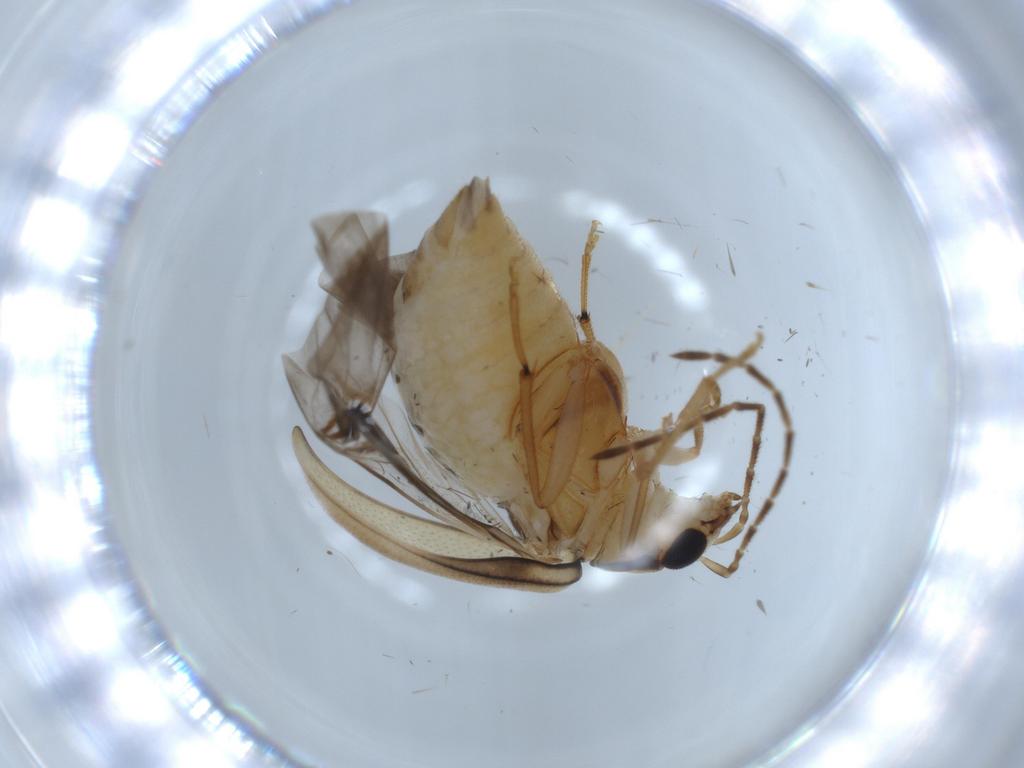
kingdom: Animalia
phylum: Arthropoda
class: Insecta
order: Coleoptera
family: Chrysomelidae
